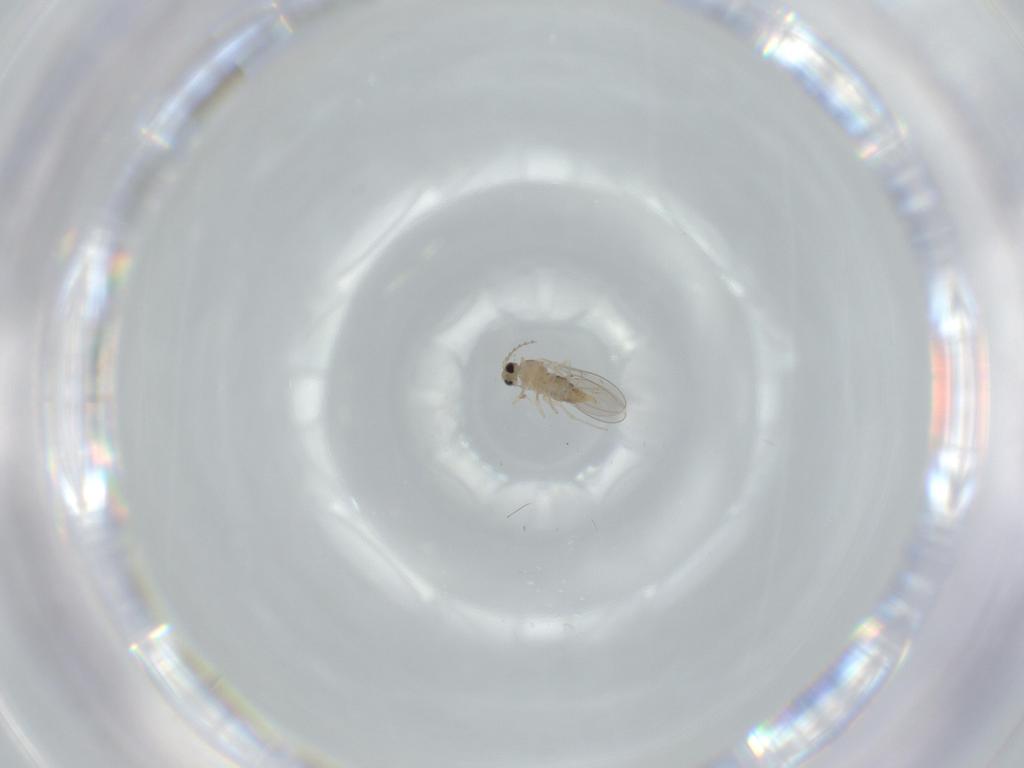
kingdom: Animalia
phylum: Arthropoda
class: Insecta
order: Diptera
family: Cecidomyiidae
